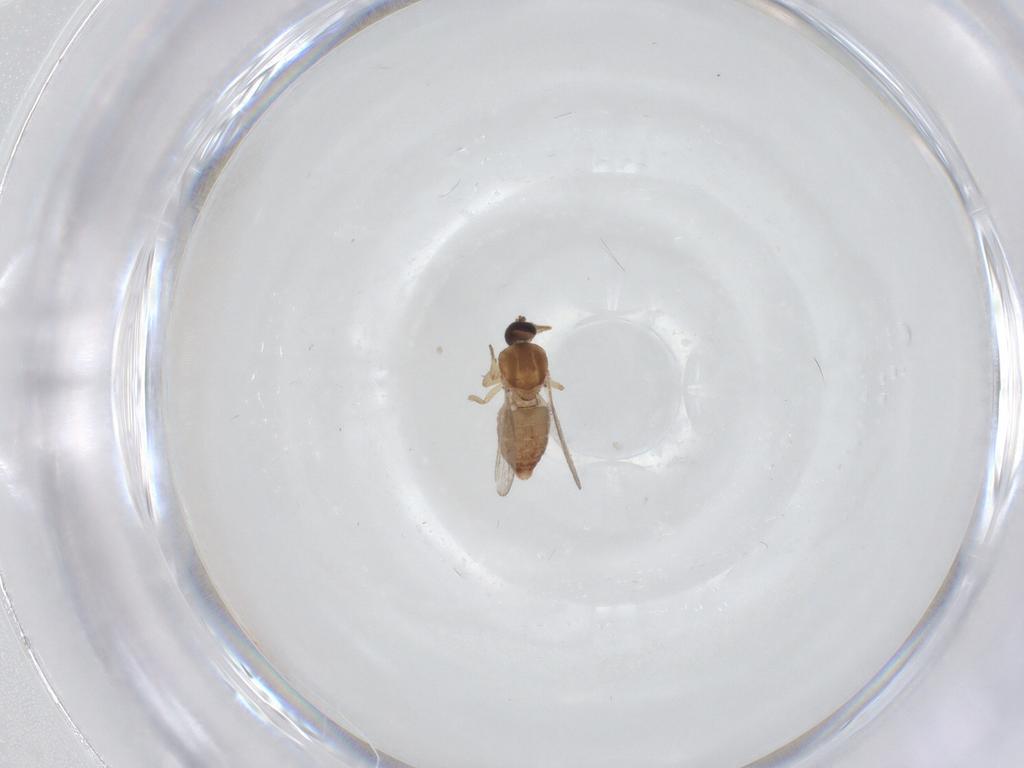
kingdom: Animalia
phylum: Arthropoda
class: Insecta
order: Diptera
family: Ceratopogonidae
